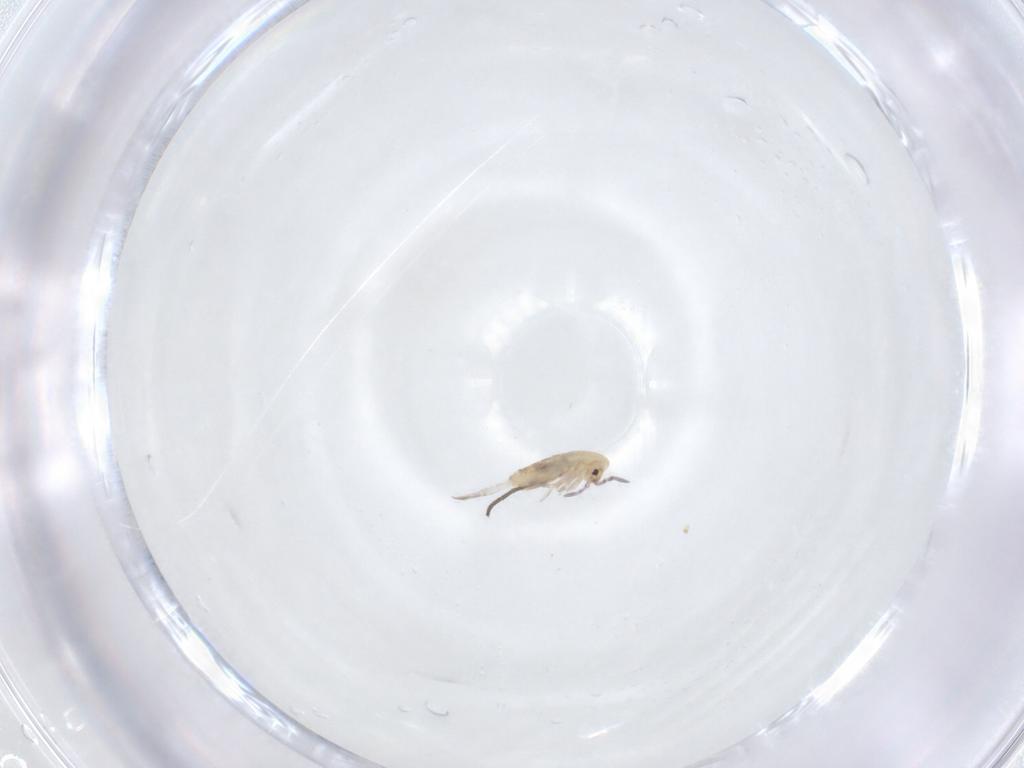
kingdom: Animalia
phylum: Arthropoda
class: Collembola
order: Entomobryomorpha
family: Entomobryidae
